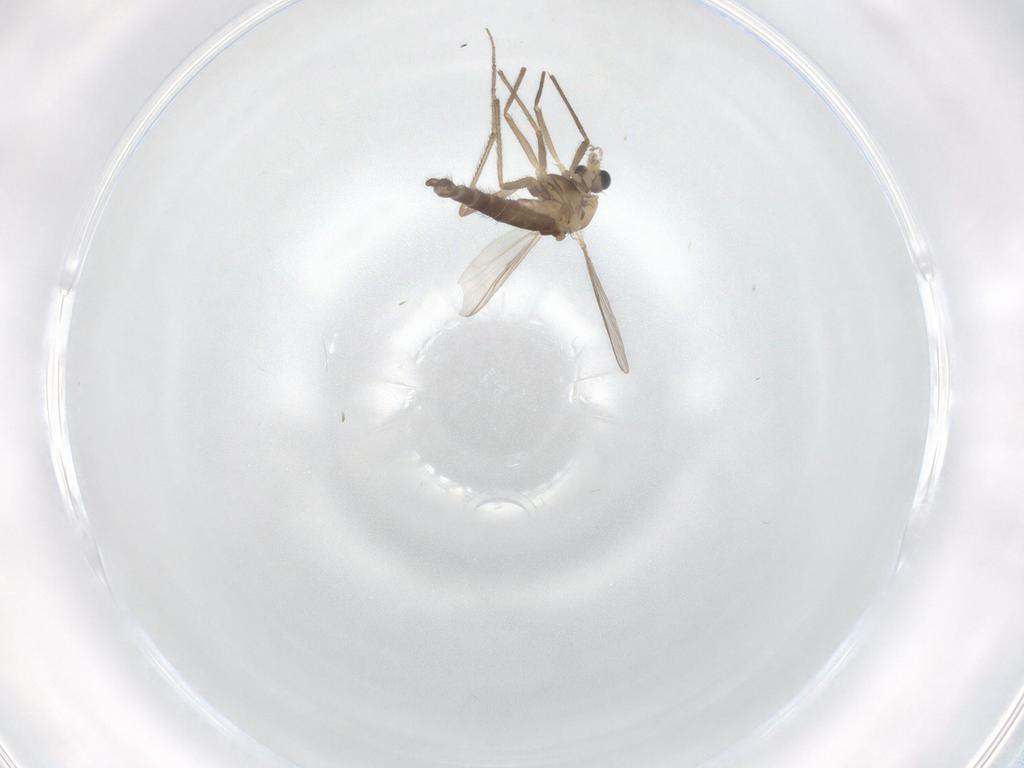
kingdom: Animalia
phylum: Arthropoda
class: Insecta
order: Diptera
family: Chironomidae
